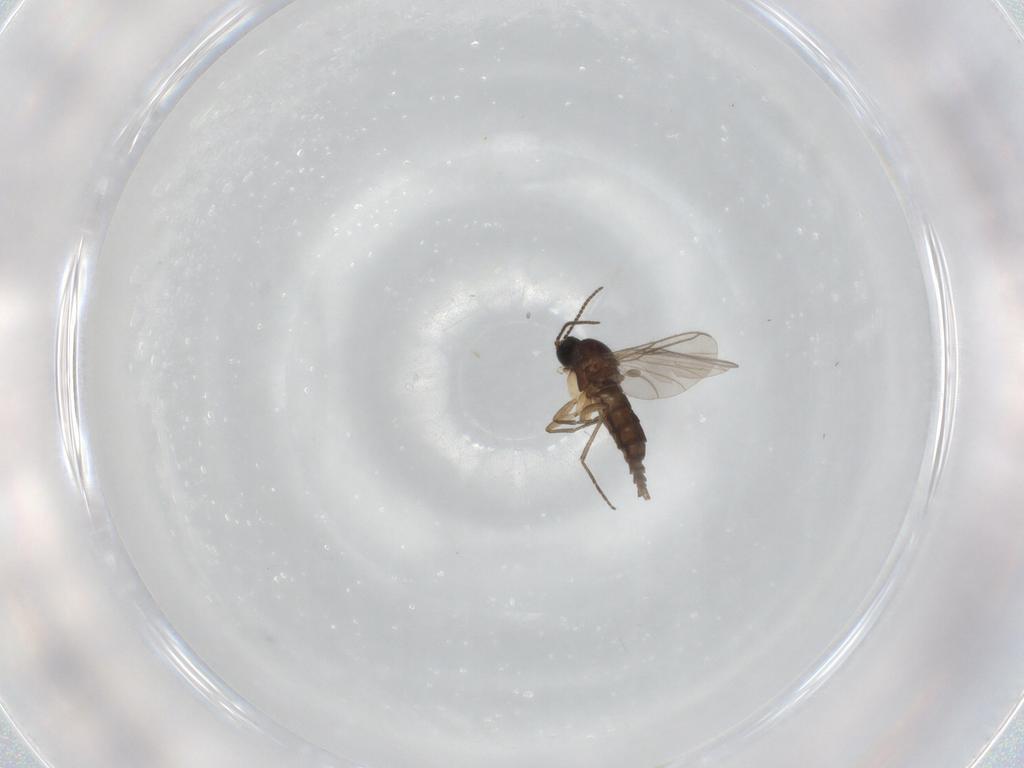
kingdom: Animalia
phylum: Arthropoda
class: Insecta
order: Diptera
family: Sciaridae
